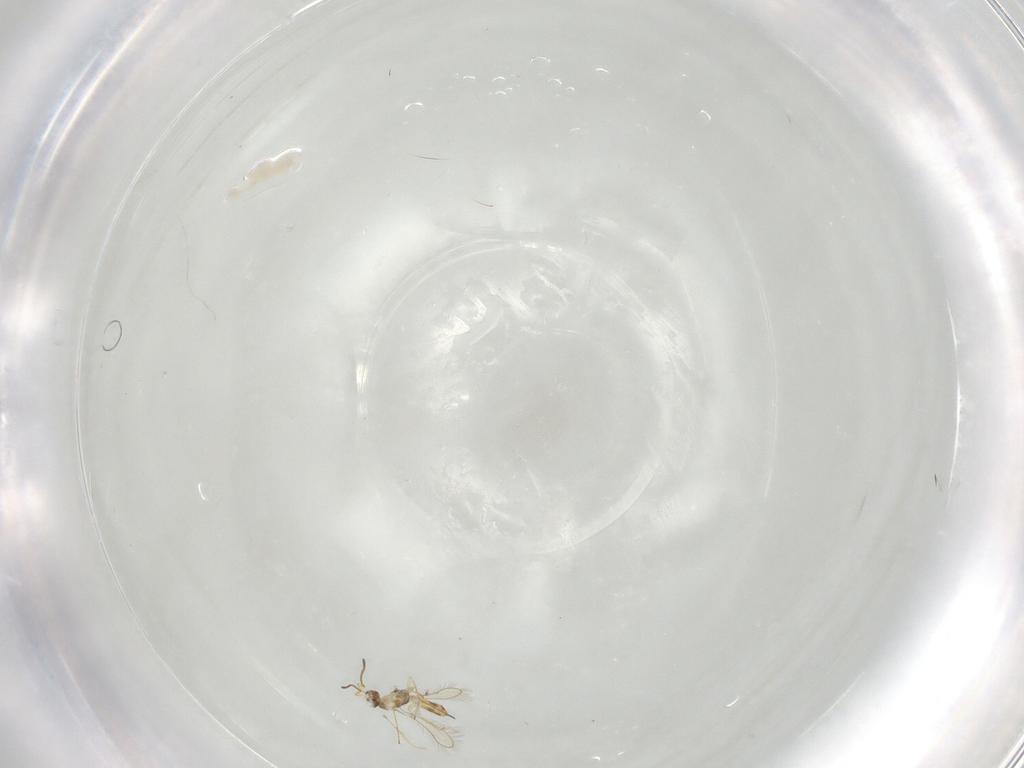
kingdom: Animalia
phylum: Arthropoda
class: Insecta
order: Hymenoptera
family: Mymaridae
